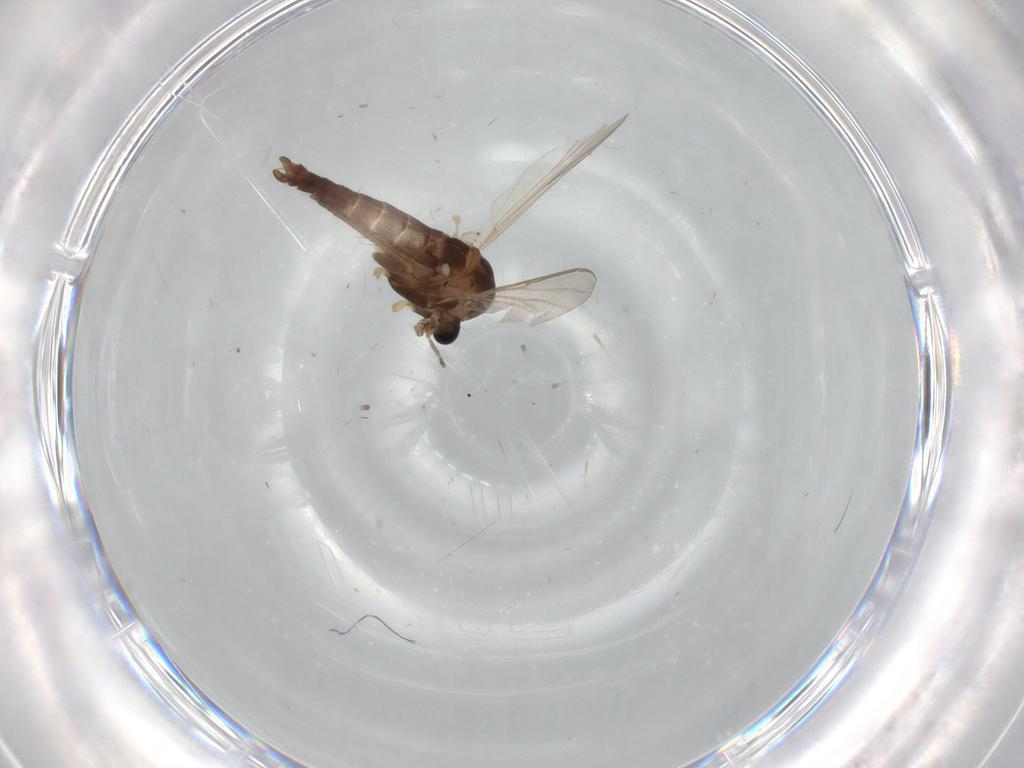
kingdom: Animalia
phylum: Arthropoda
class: Insecta
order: Diptera
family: Chironomidae
